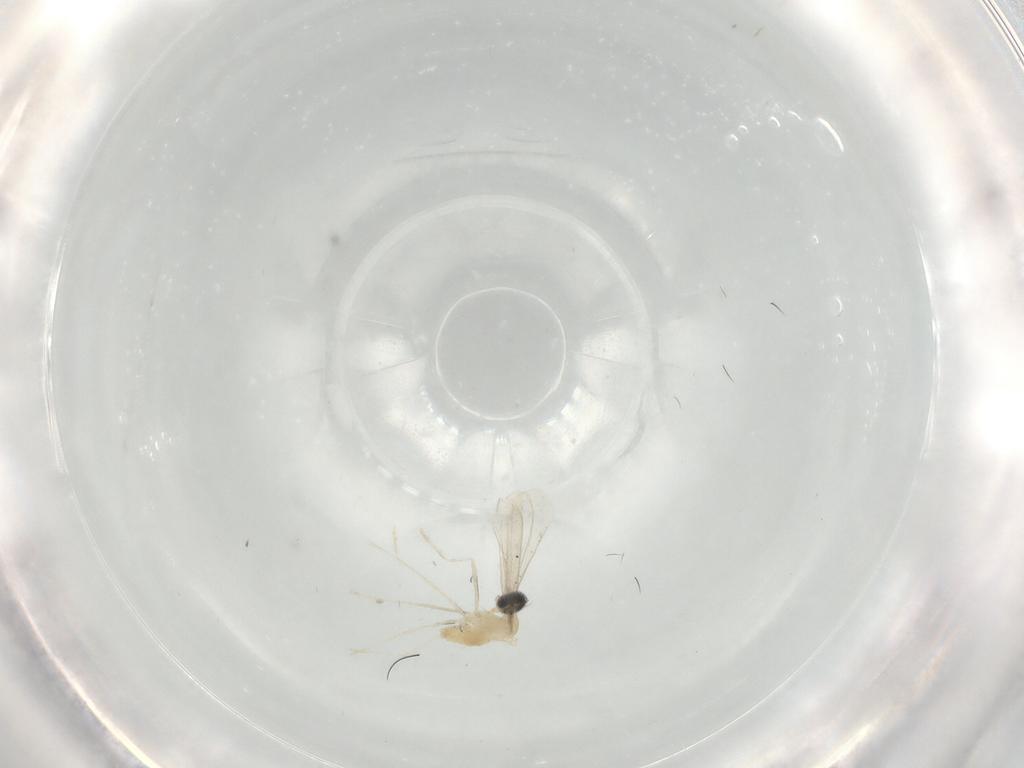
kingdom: Animalia
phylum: Arthropoda
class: Insecta
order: Diptera
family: Cecidomyiidae
